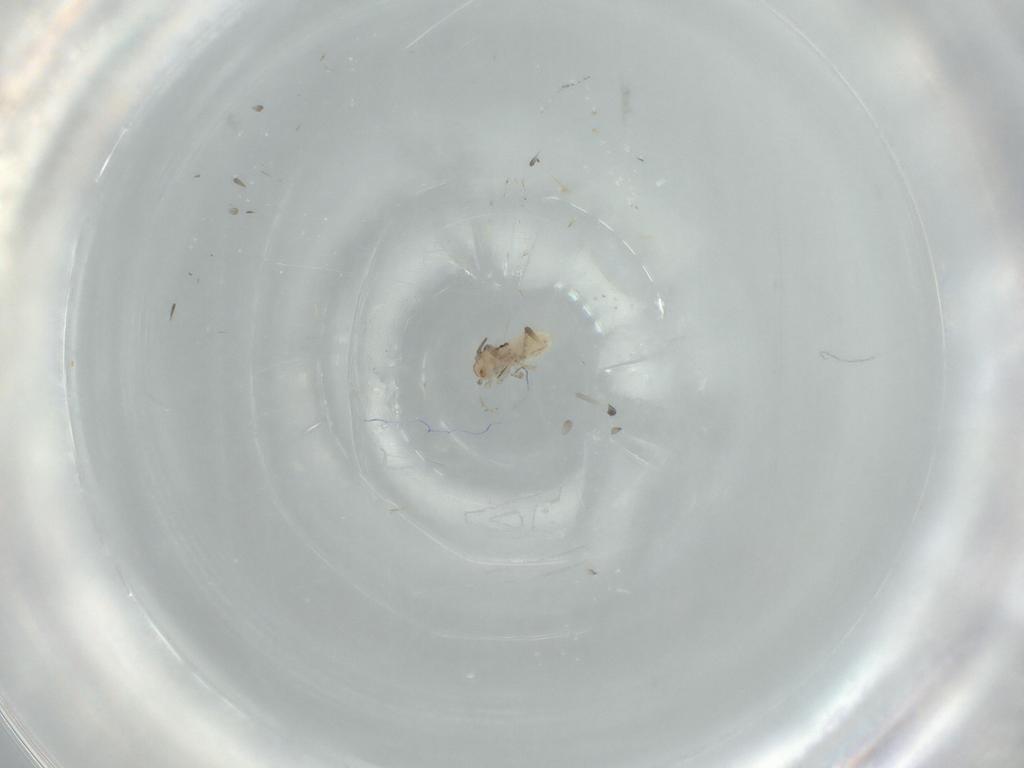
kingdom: Animalia
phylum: Arthropoda
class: Insecta
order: Psocodea
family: Lepidopsocidae
